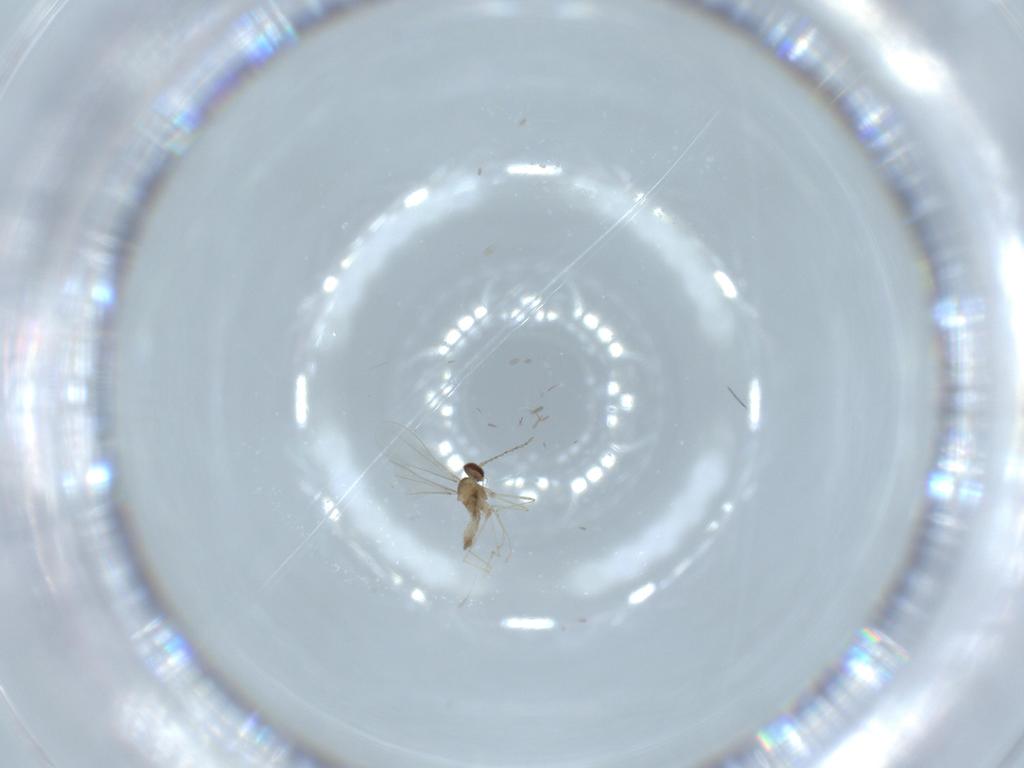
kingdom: Animalia
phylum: Arthropoda
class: Insecta
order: Diptera
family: Cecidomyiidae
